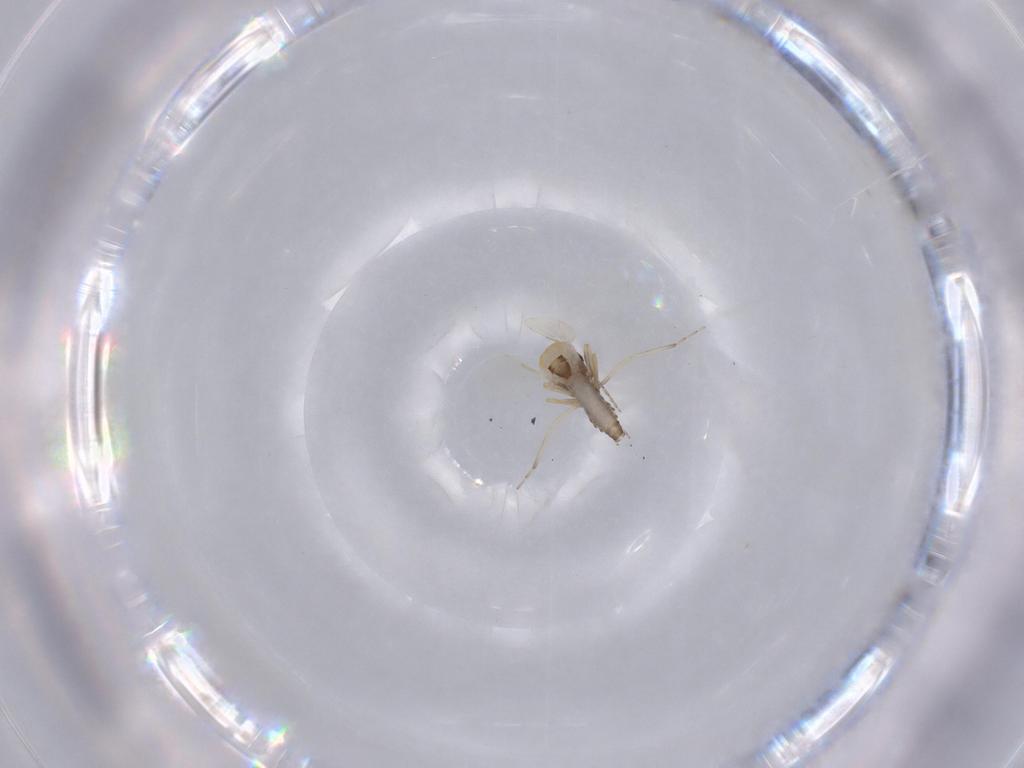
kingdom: Animalia
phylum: Arthropoda
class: Insecta
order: Diptera
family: Ceratopogonidae
